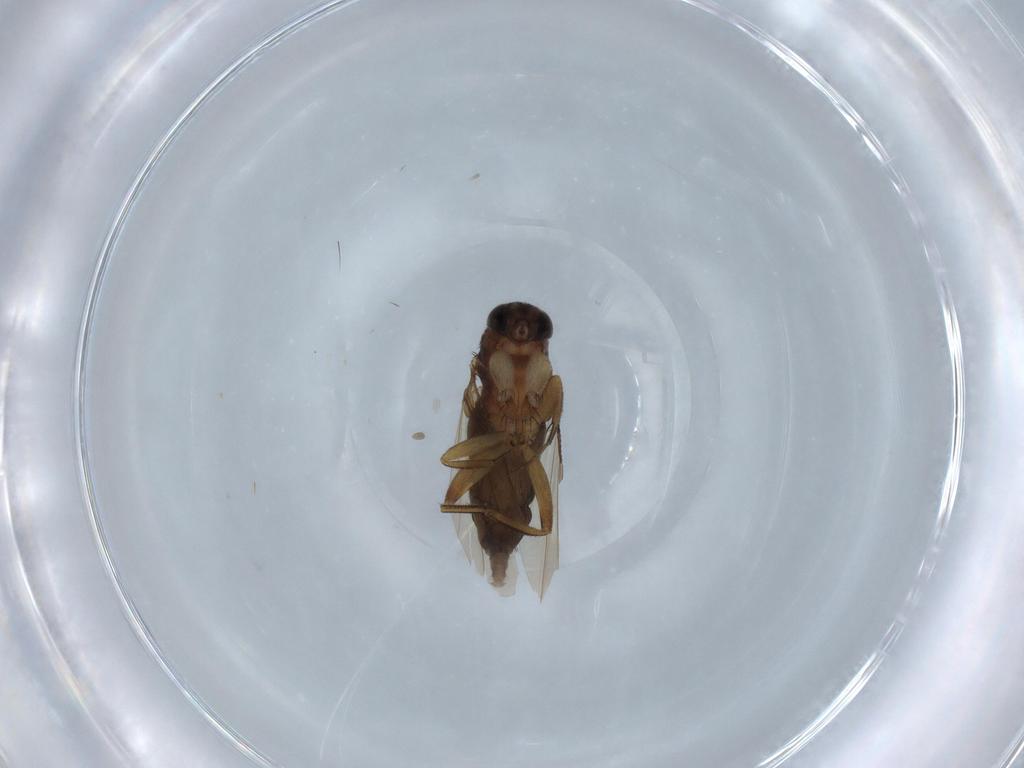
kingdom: Animalia
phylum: Arthropoda
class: Insecta
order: Diptera
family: Phoridae
